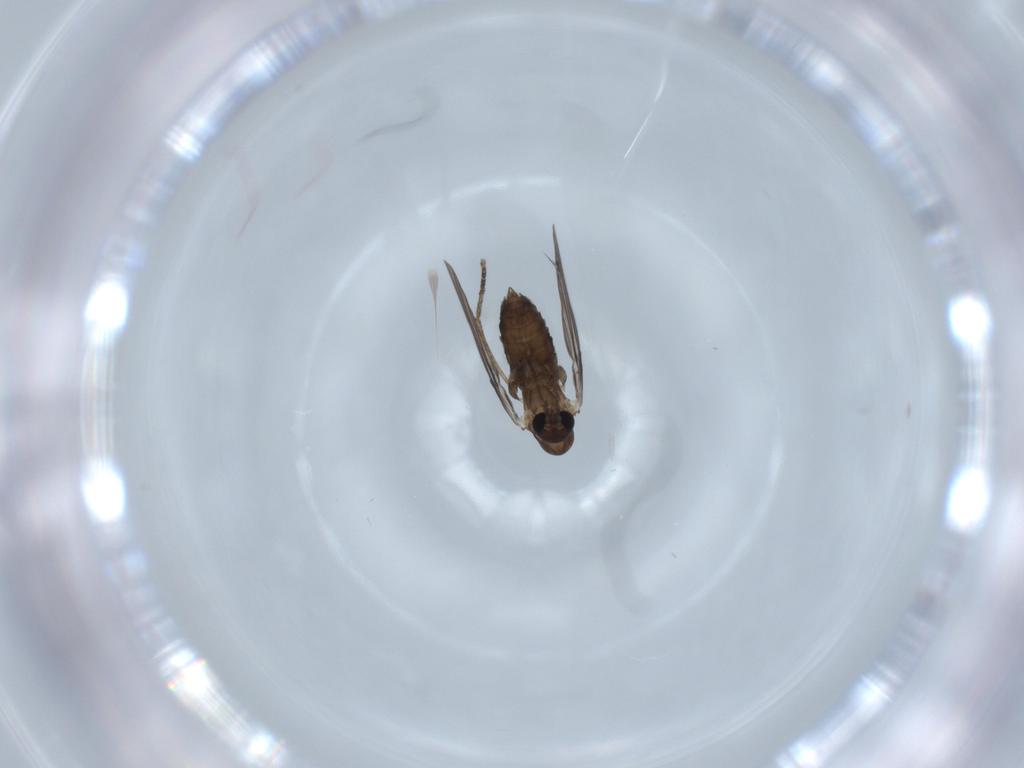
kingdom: Animalia
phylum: Arthropoda
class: Insecta
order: Diptera
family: Psychodidae
